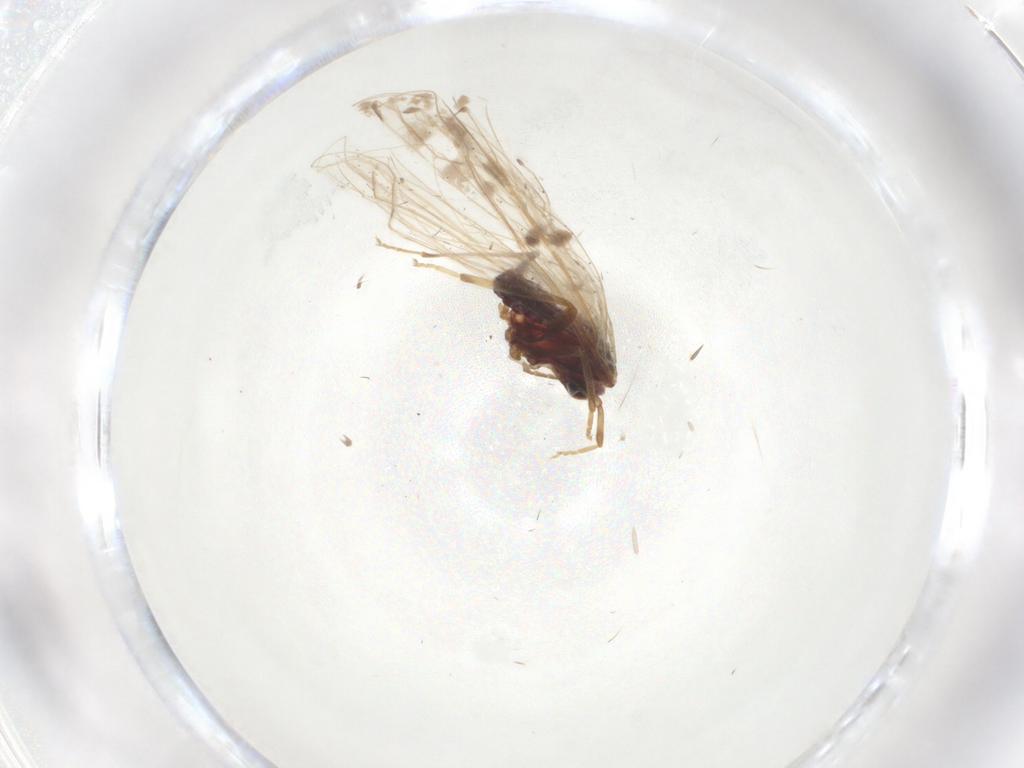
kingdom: Animalia
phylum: Arthropoda
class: Insecta
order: Neuroptera
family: Coniopterygidae
